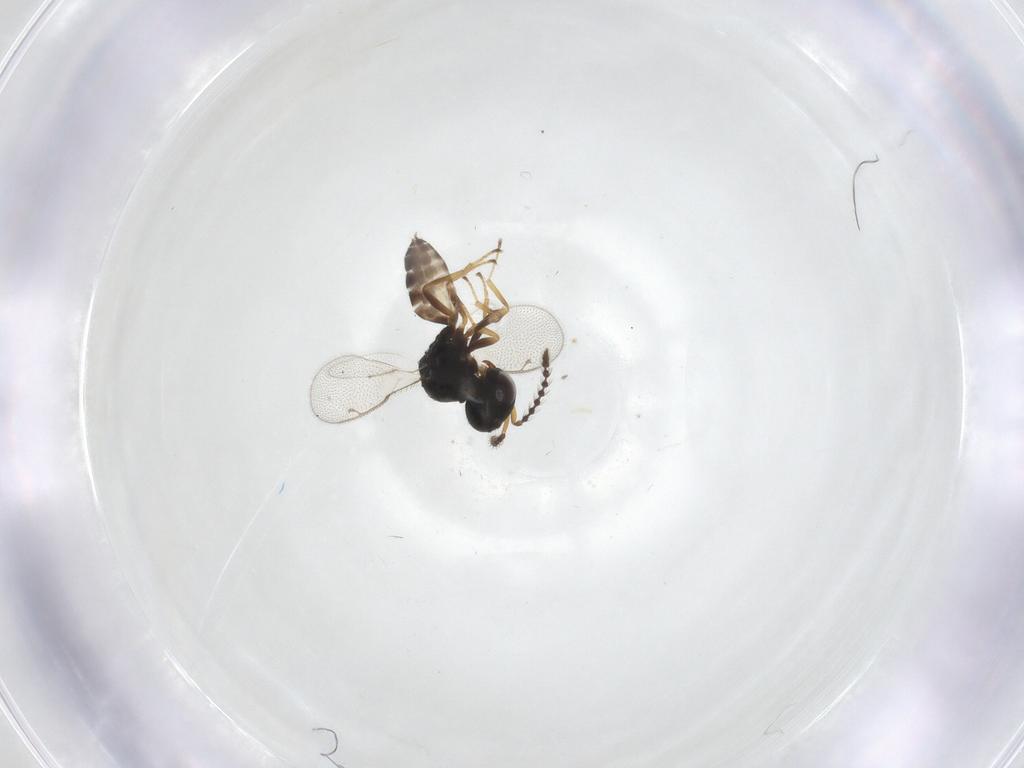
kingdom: Animalia
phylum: Arthropoda
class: Insecta
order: Hymenoptera
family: Pteromalidae
